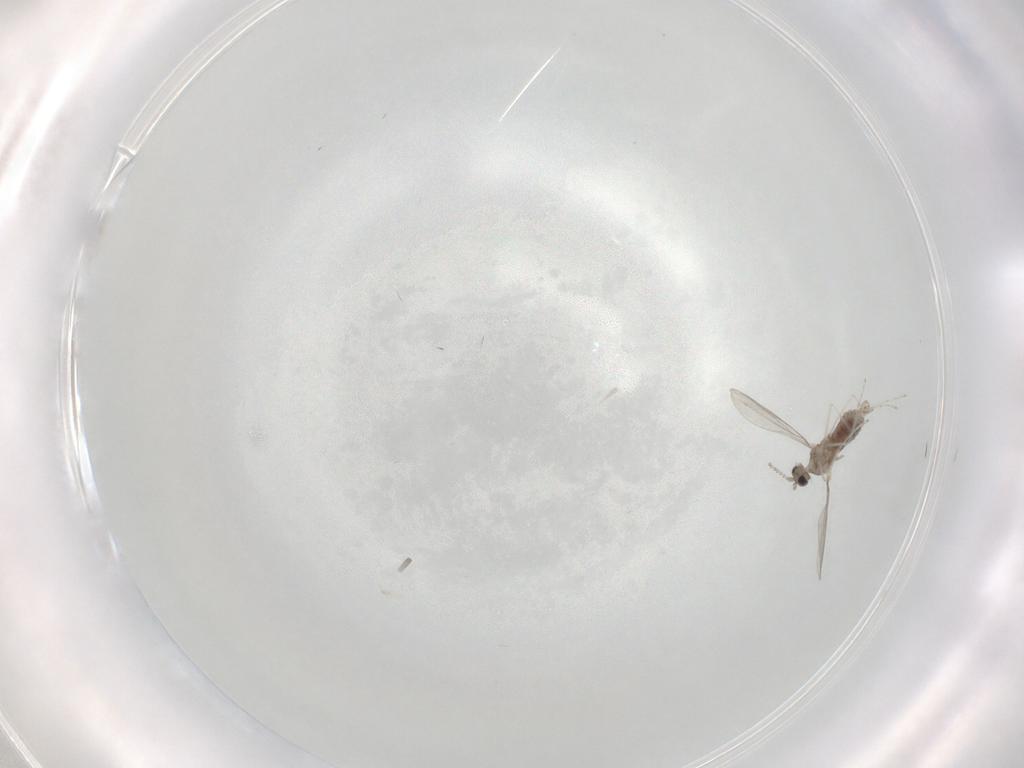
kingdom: Animalia
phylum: Arthropoda
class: Insecta
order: Diptera
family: Cecidomyiidae
